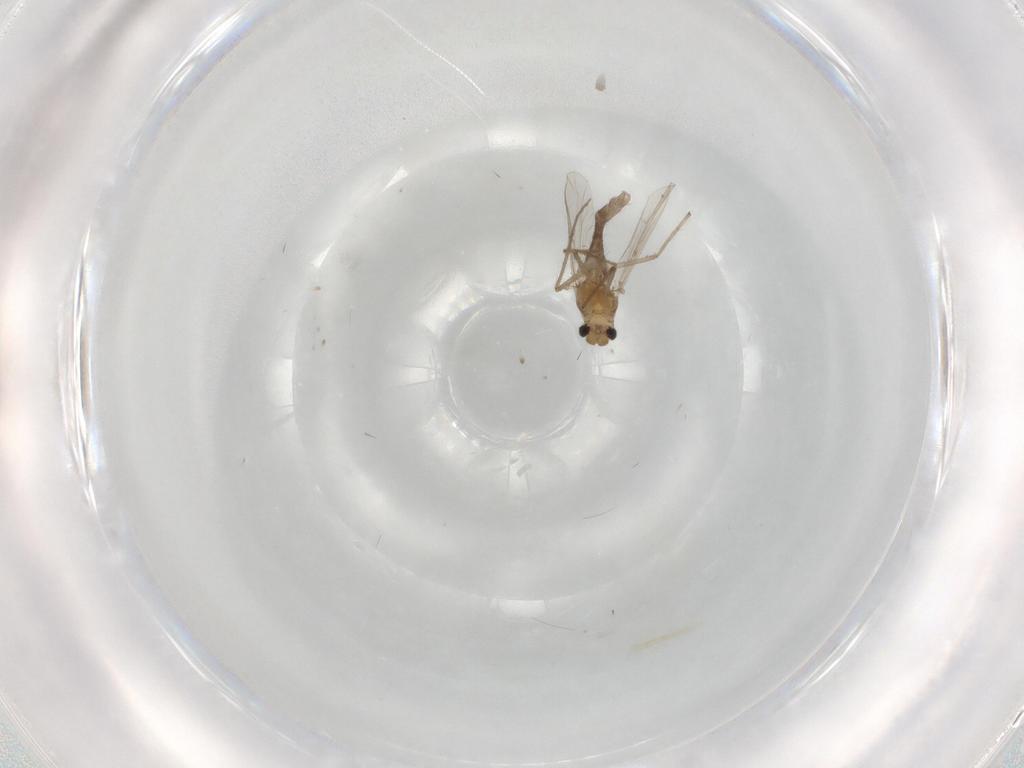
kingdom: Animalia
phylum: Arthropoda
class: Insecta
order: Diptera
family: Chironomidae
